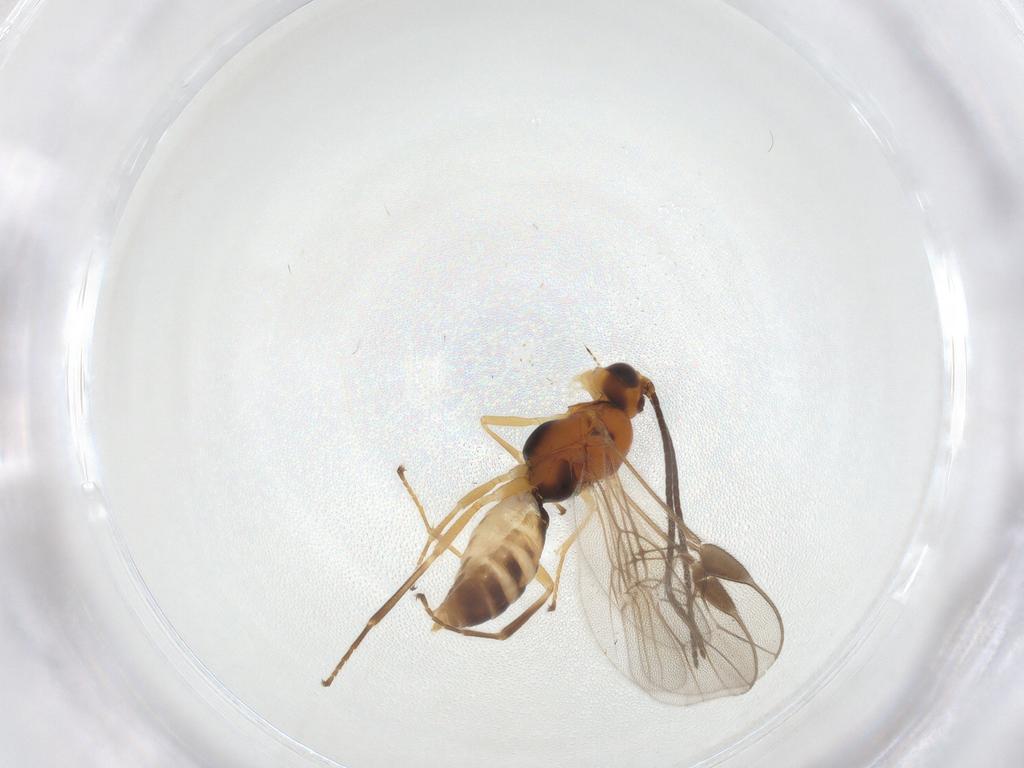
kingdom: Animalia
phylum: Arthropoda
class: Insecta
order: Hymenoptera
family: Braconidae
